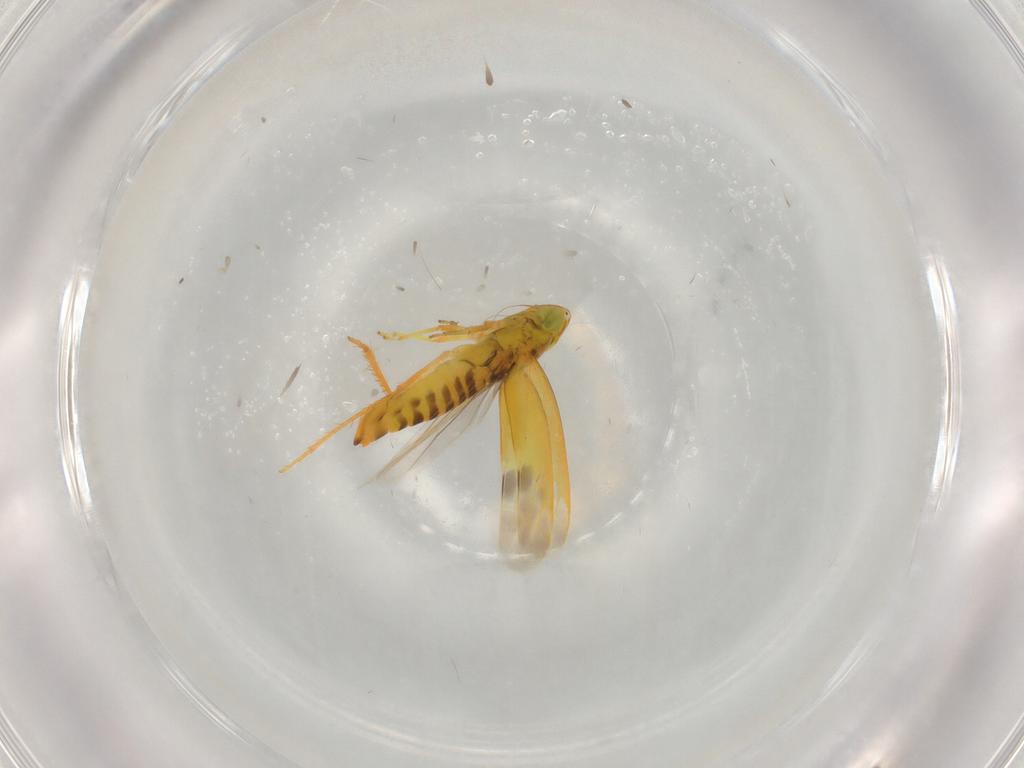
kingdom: Animalia
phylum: Arthropoda
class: Insecta
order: Hemiptera
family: Cicadellidae
